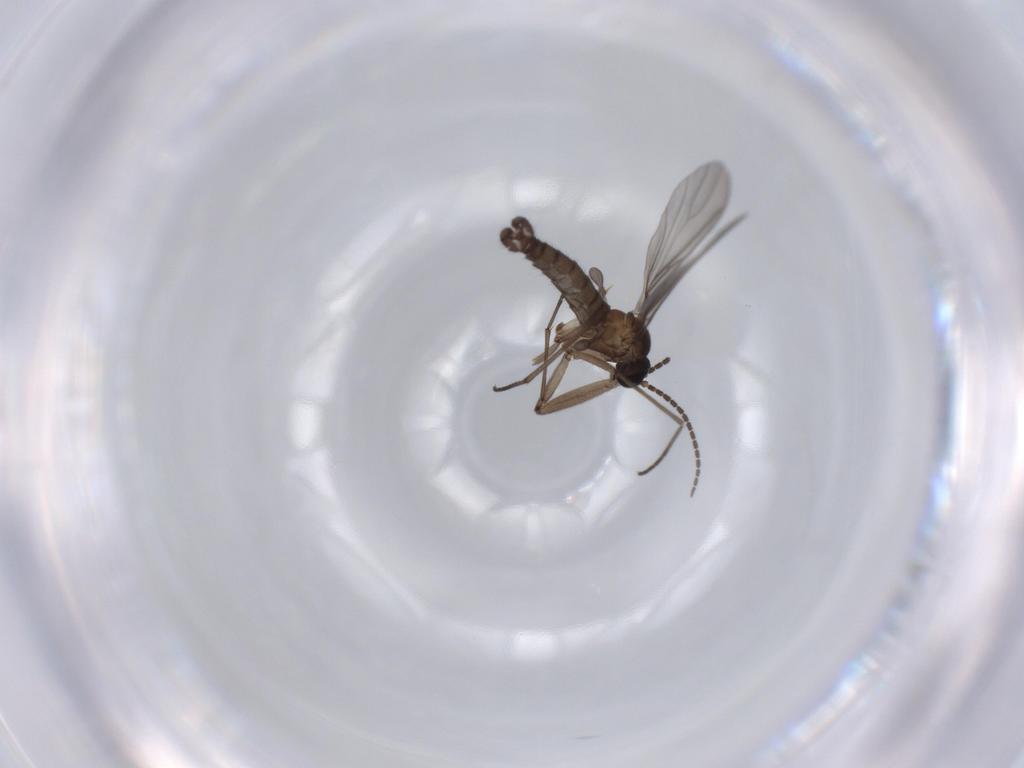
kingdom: Animalia
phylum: Arthropoda
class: Insecta
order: Diptera
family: Sciaridae
